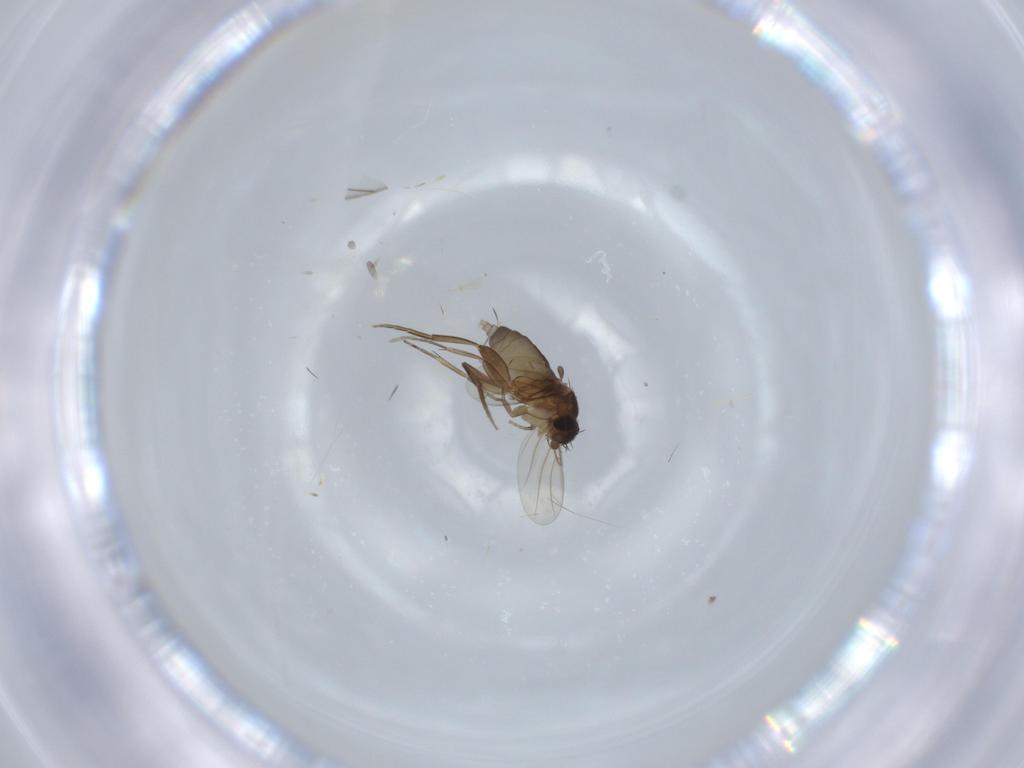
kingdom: Animalia
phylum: Arthropoda
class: Insecta
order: Diptera
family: Phoridae
